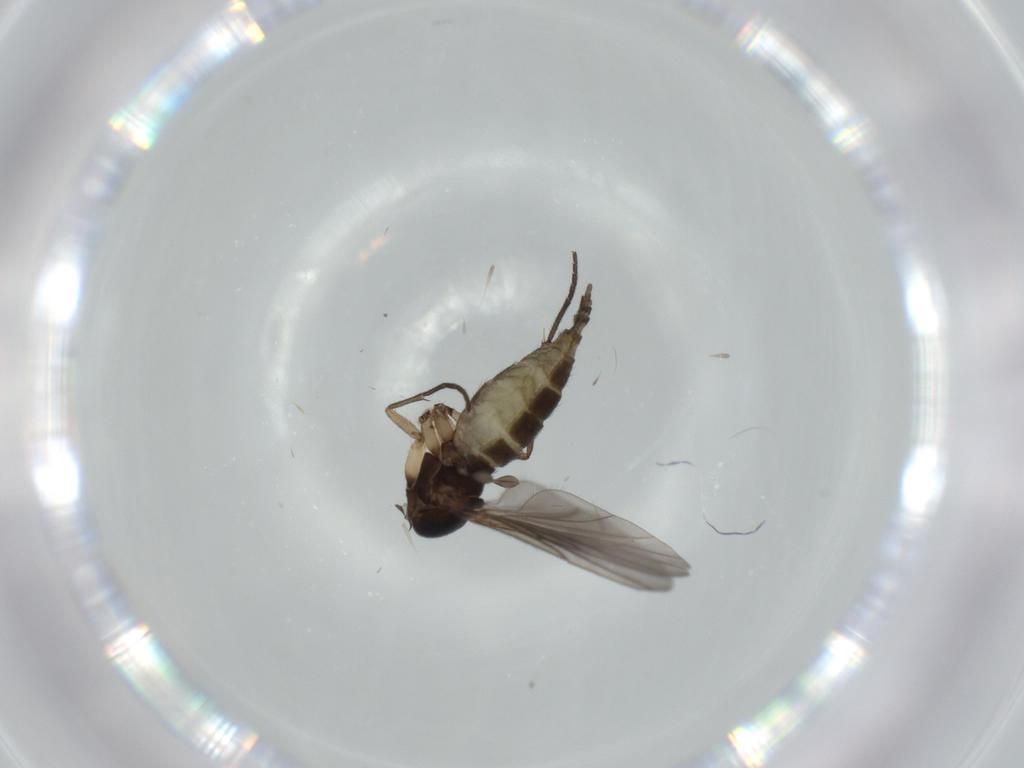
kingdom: Animalia
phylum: Arthropoda
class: Insecta
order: Diptera
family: Sciaridae
